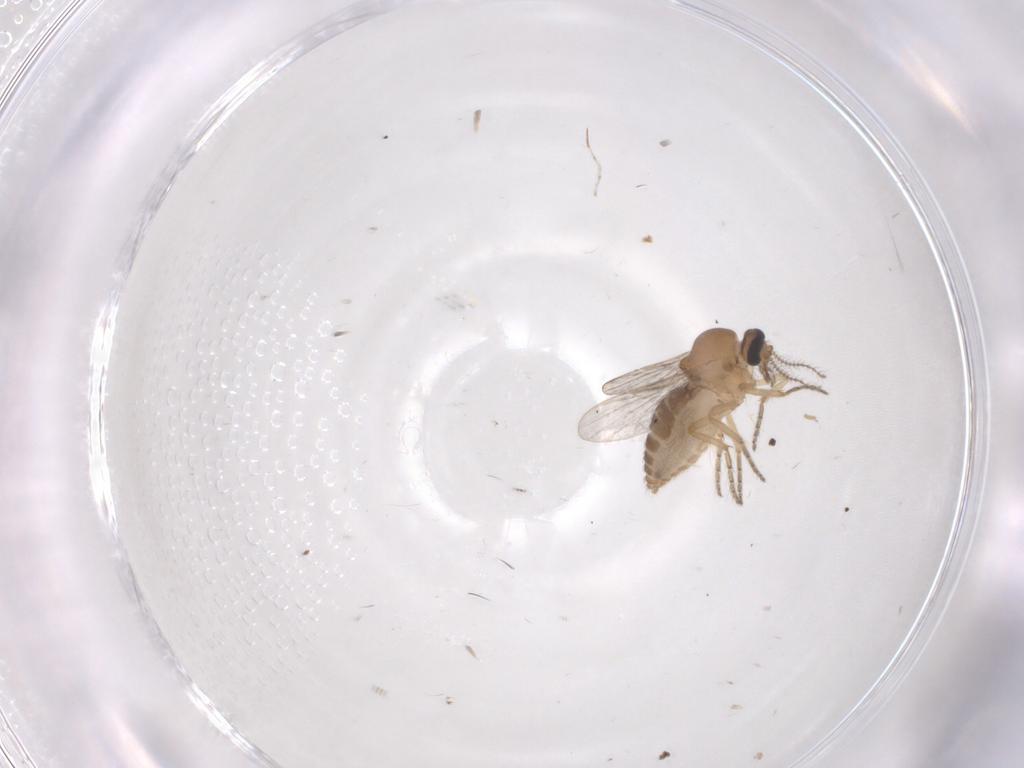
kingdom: Animalia
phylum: Arthropoda
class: Insecta
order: Diptera
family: Ceratopogonidae
